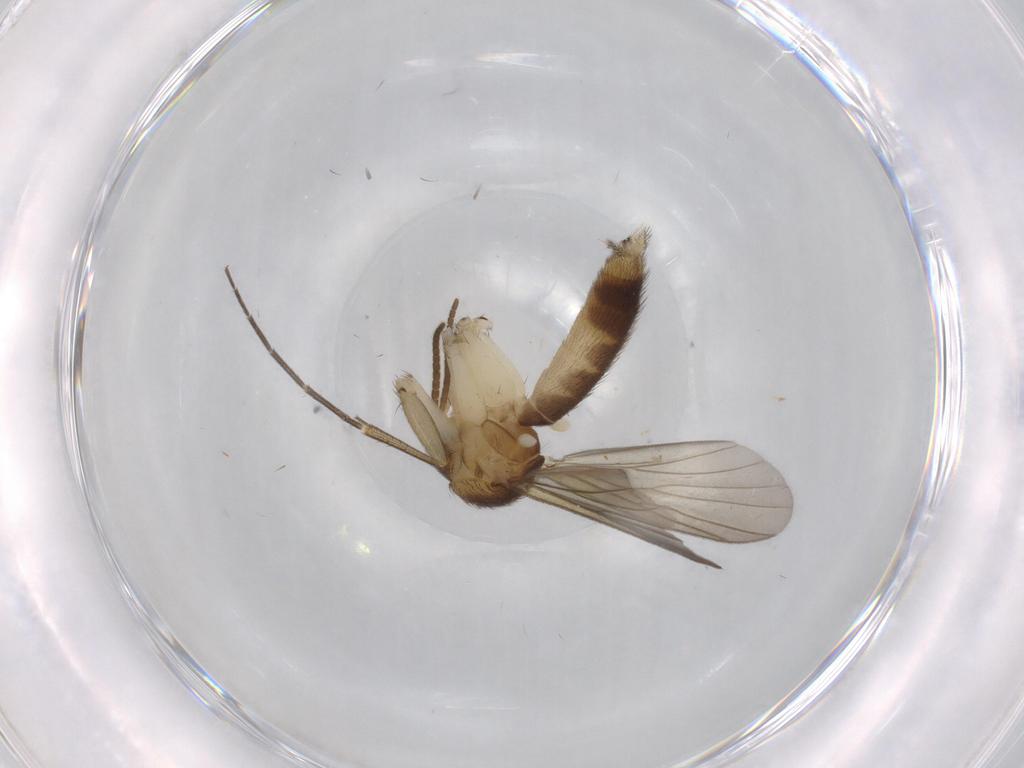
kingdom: Animalia
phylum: Arthropoda
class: Insecta
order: Diptera
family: Mycetophilidae
